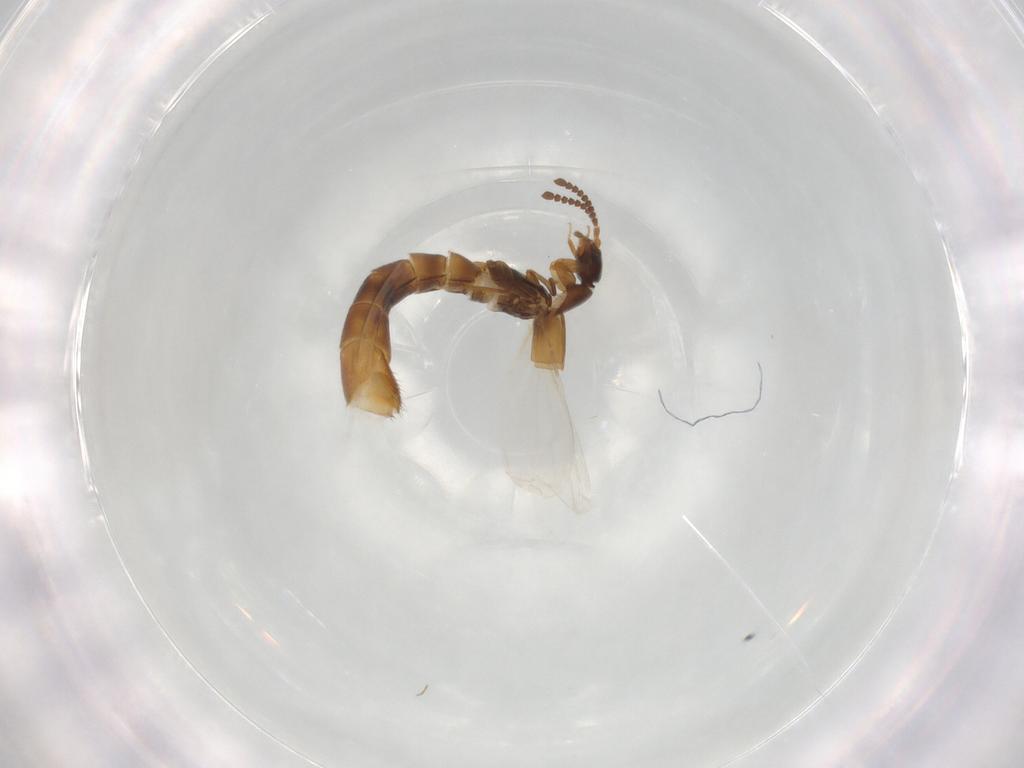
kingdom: Animalia
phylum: Arthropoda
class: Insecta
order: Coleoptera
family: Staphylinidae
